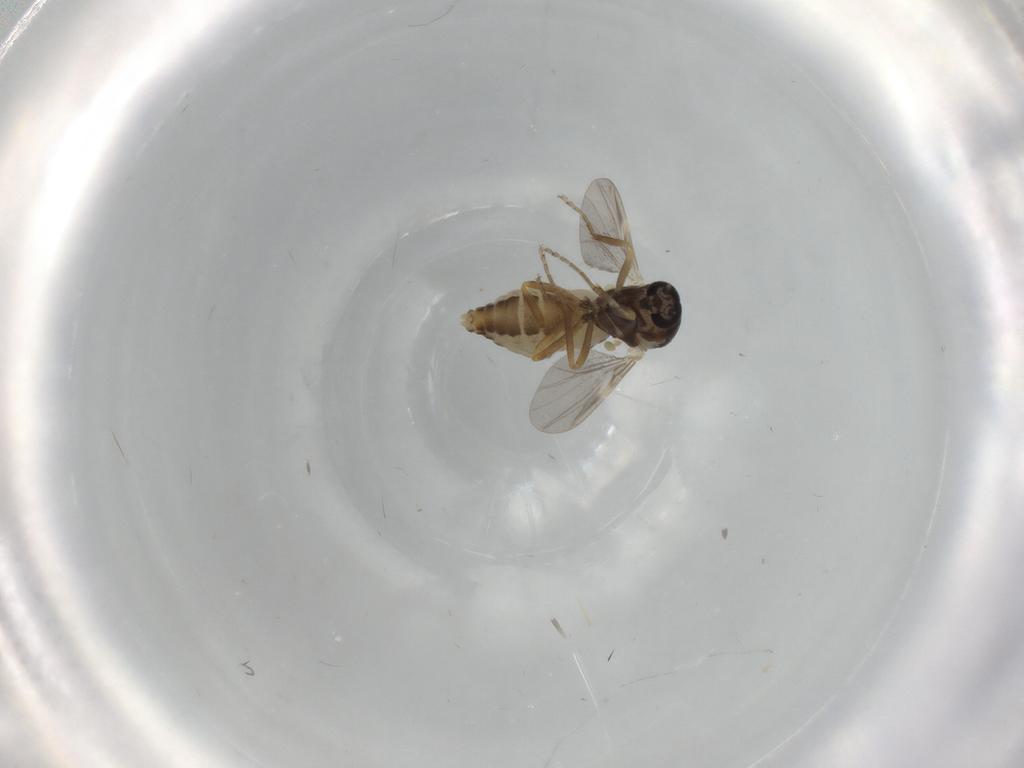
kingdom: Animalia
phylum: Arthropoda
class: Insecta
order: Diptera
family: Ceratopogonidae
